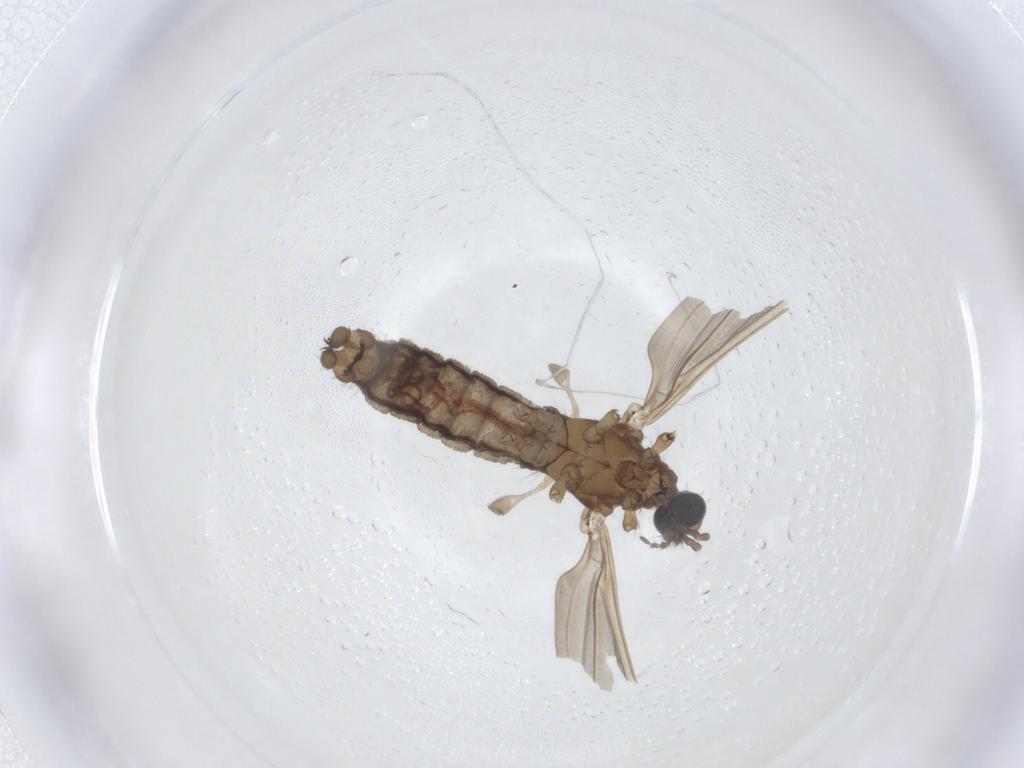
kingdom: Animalia
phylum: Arthropoda
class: Insecta
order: Diptera
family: Limoniidae
